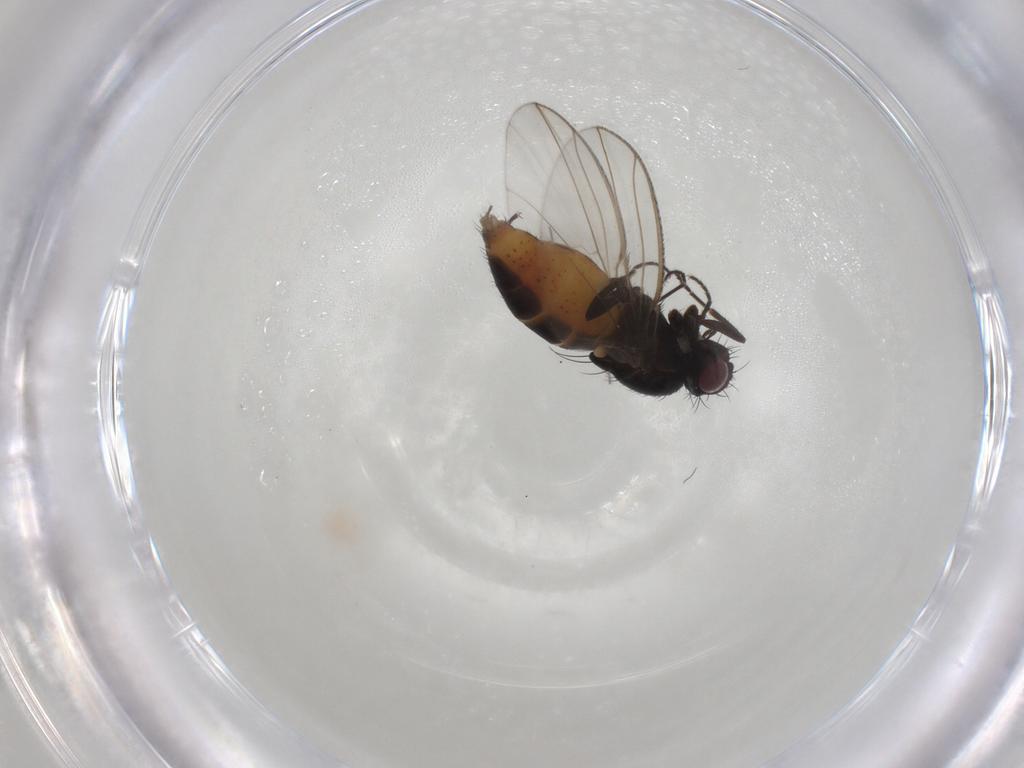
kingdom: Animalia
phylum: Arthropoda
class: Insecta
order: Diptera
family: Carnidae
